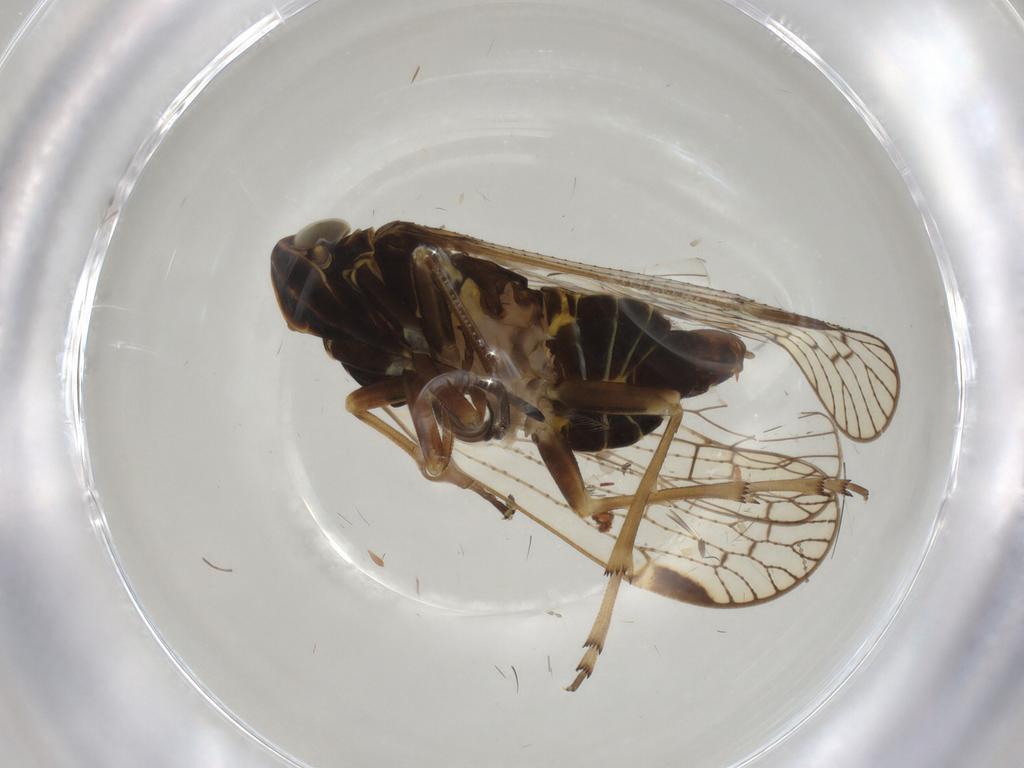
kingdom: Animalia
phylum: Arthropoda
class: Insecta
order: Hemiptera
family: Cixiidae
